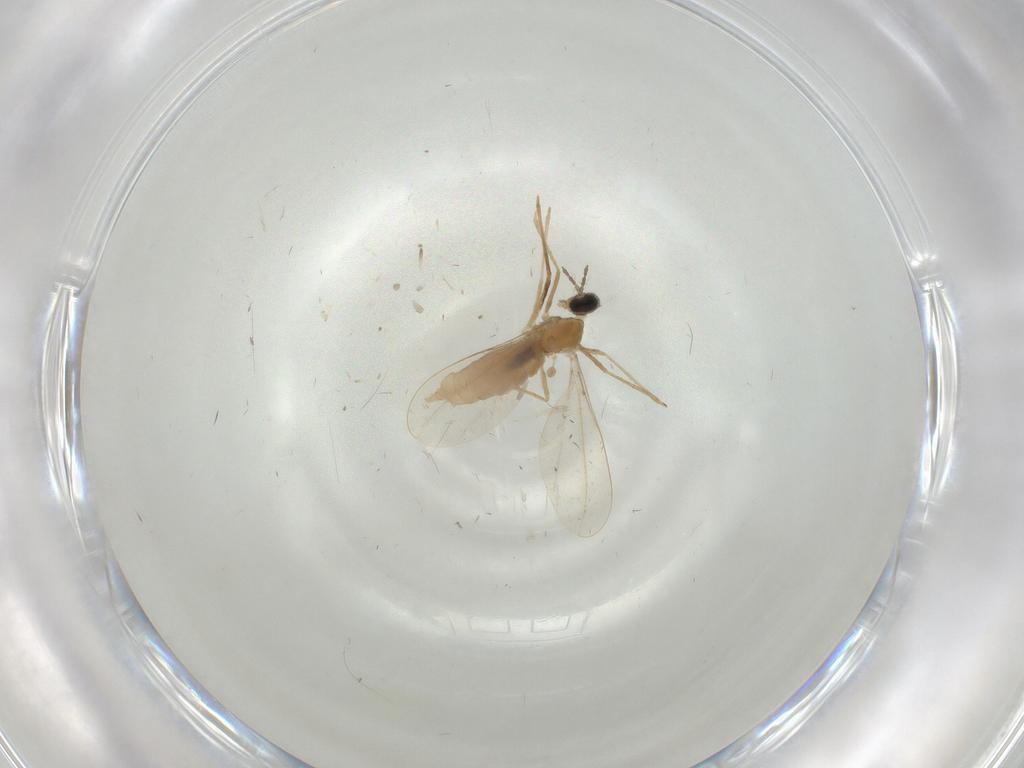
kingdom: Animalia
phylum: Arthropoda
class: Insecta
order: Diptera
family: Cecidomyiidae
